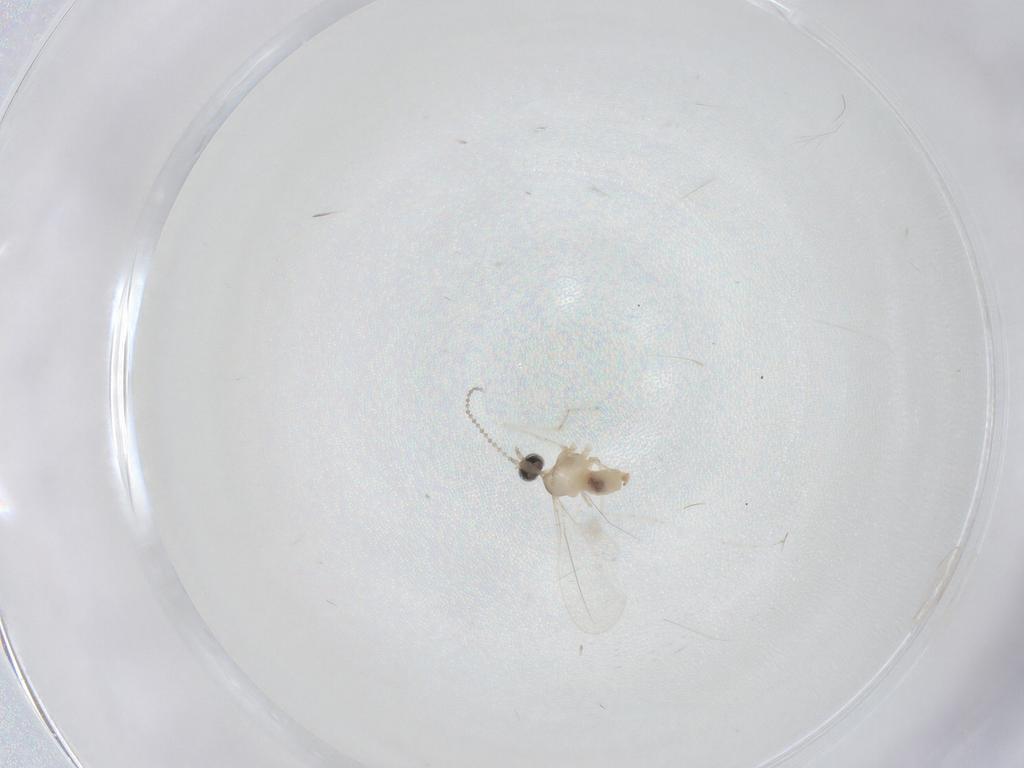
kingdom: Animalia
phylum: Arthropoda
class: Insecta
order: Diptera
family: Cecidomyiidae
